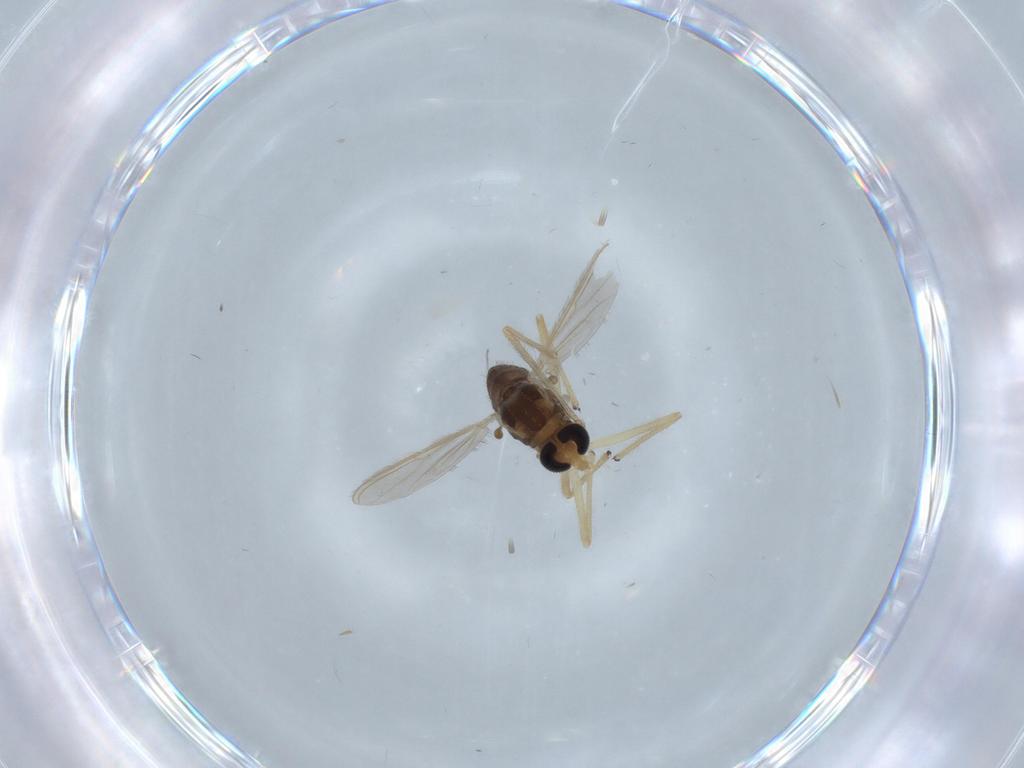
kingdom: Animalia
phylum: Arthropoda
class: Insecta
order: Diptera
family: Chironomidae
